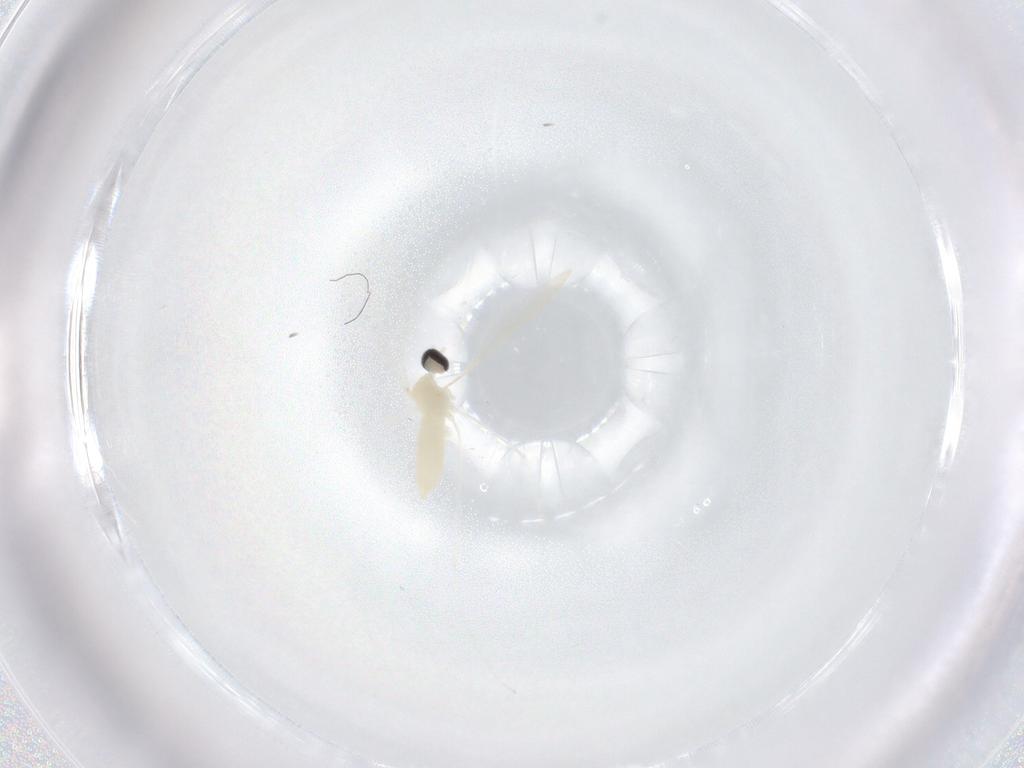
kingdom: Animalia
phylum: Arthropoda
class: Insecta
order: Diptera
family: Cecidomyiidae
